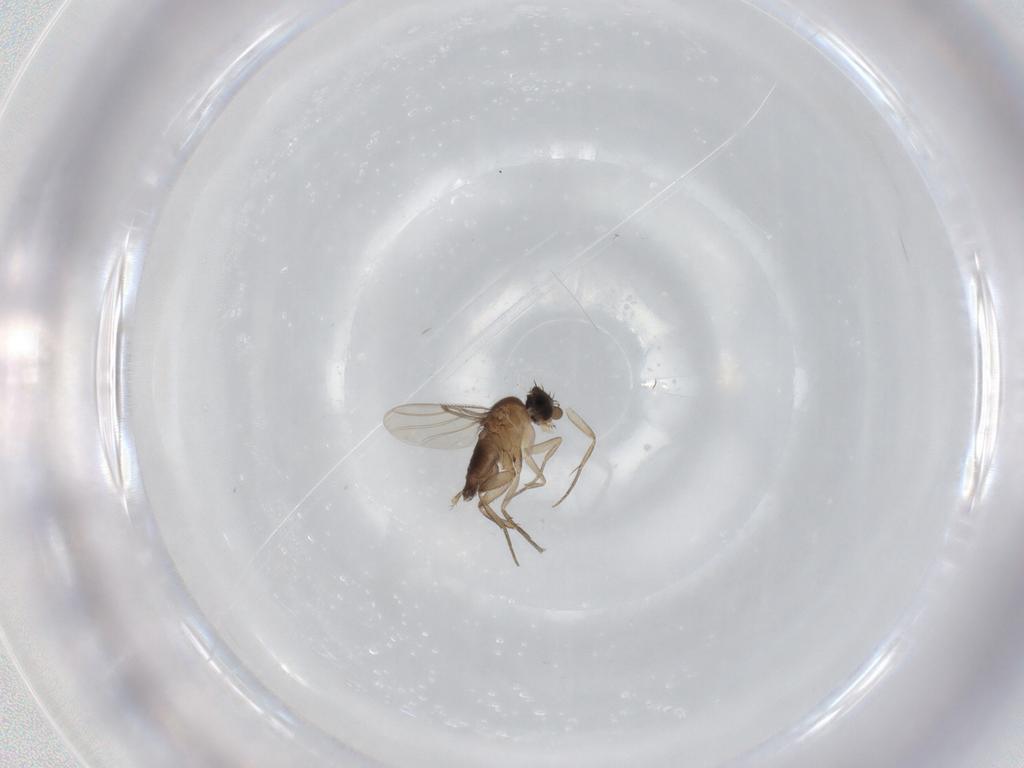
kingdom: Animalia
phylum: Arthropoda
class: Insecta
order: Diptera
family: Phoridae
